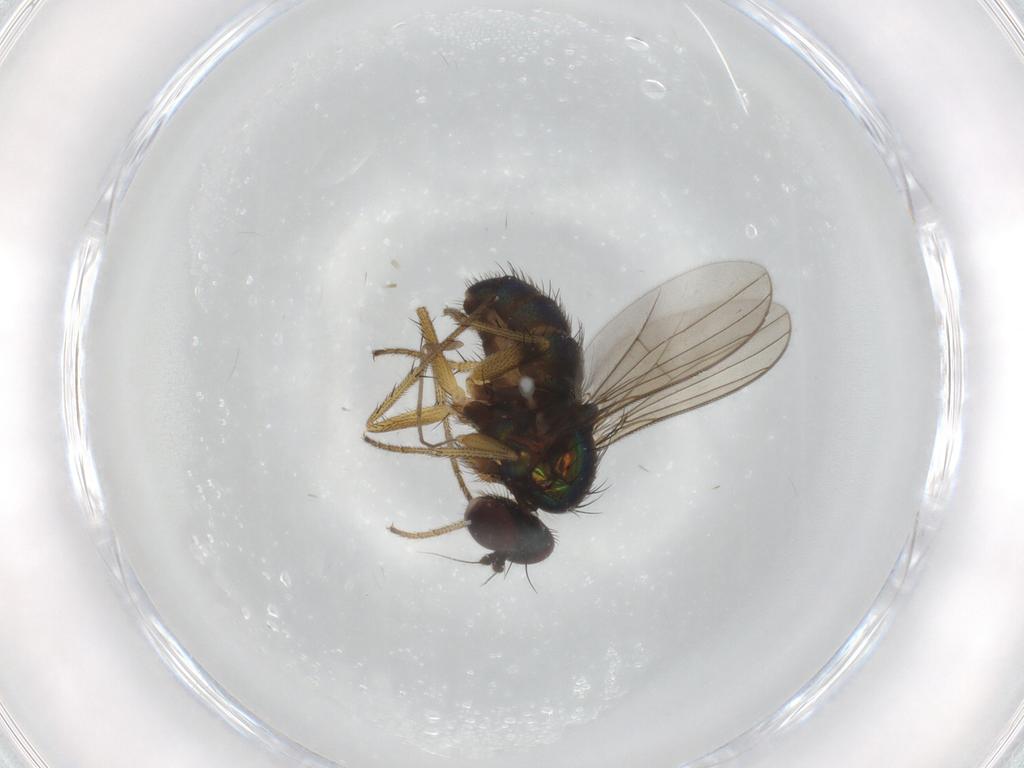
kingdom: Animalia
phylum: Arthropoda
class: Insecta
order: Diptera
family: Dolichopodidae
